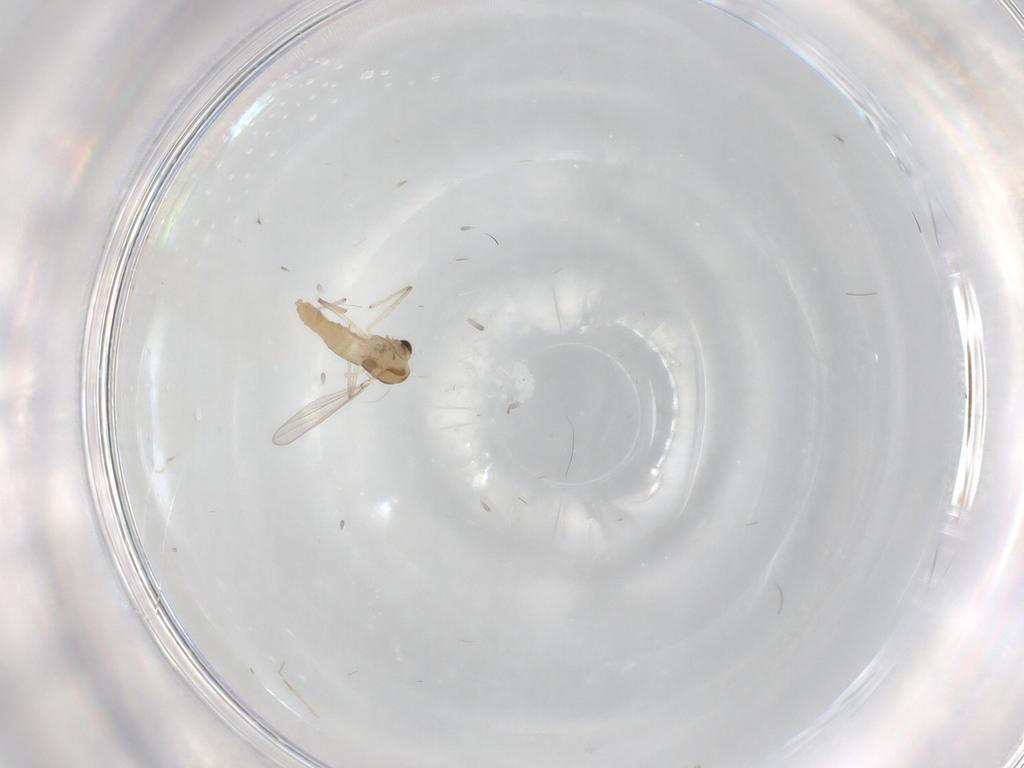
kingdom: Animalia
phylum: Arthropoda
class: Insecta
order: Diptera
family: Chironomidae
